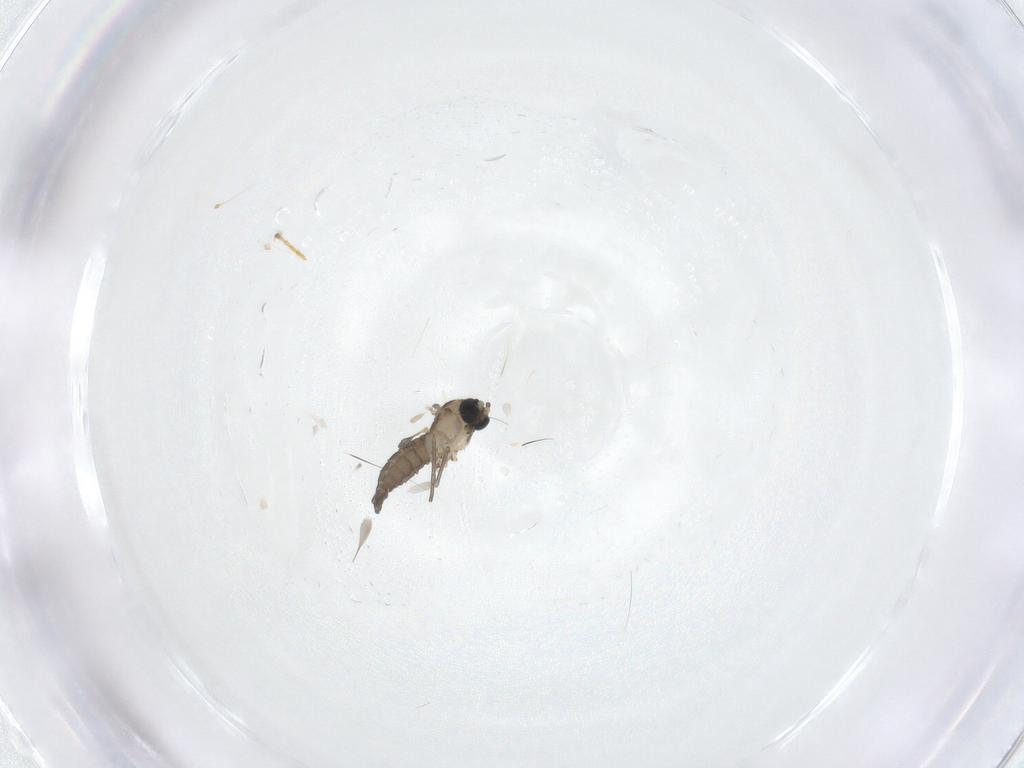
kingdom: Animalia
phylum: Arthropoda
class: Insecta
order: Diptera
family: Sciaridae
